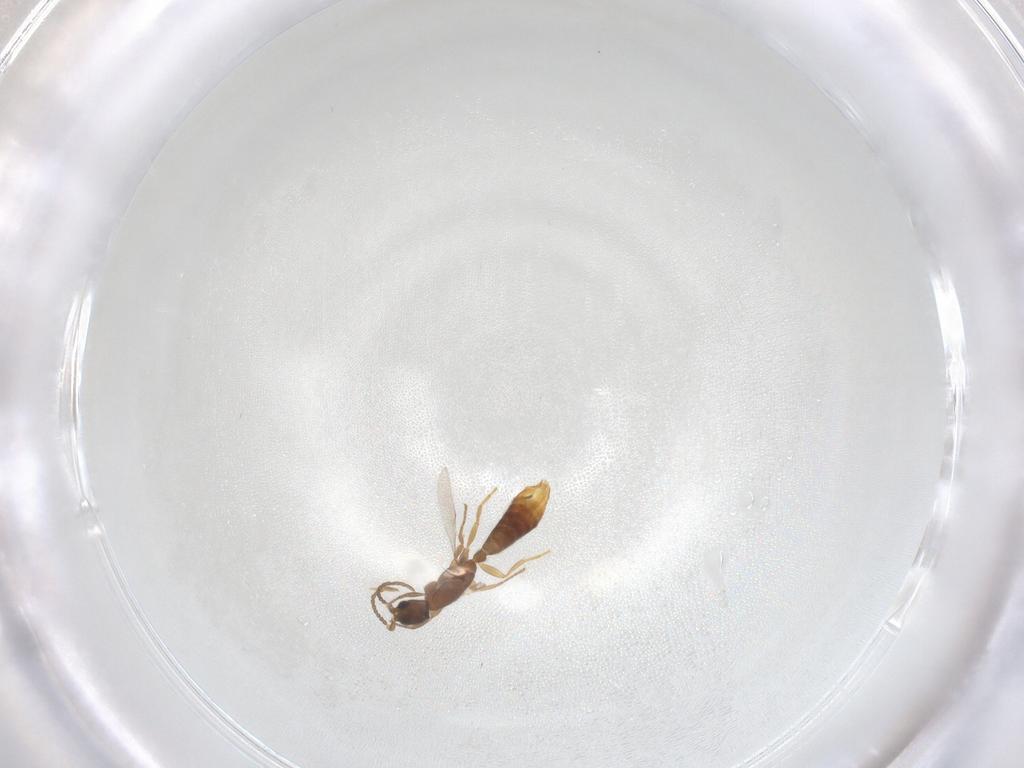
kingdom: Animalia
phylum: Arthropoda
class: Insecta
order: Hymenoptera
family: Formicidae
